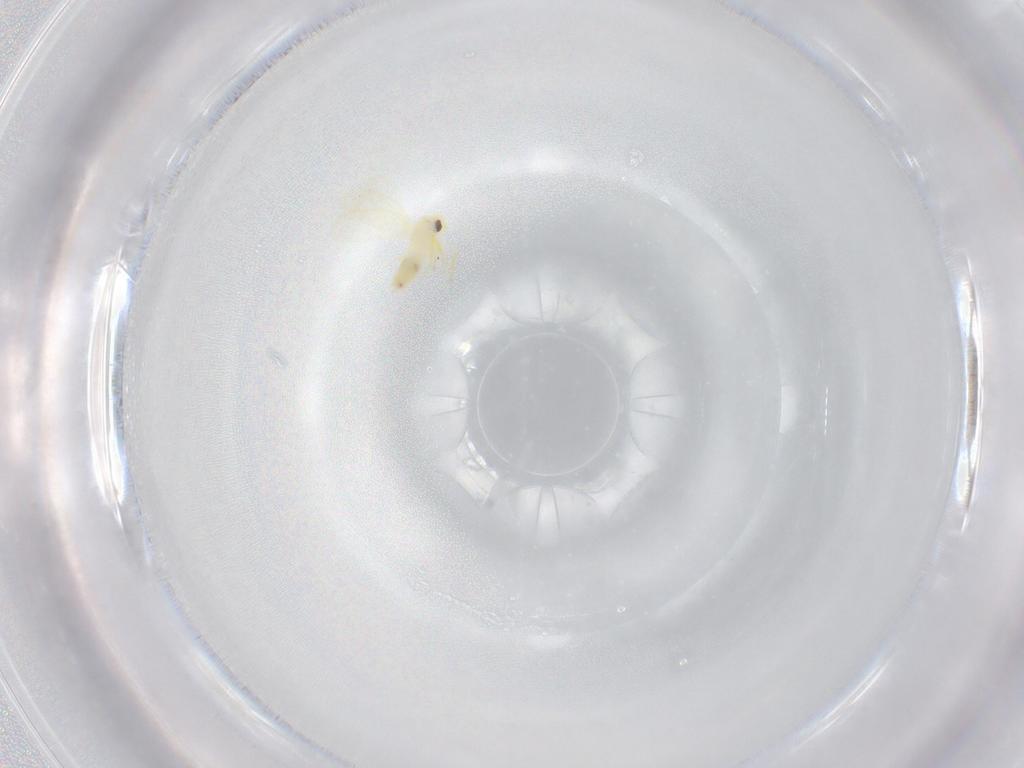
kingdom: Animalia
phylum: Arthropoda
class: Insecta
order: Hemiptera
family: Aleyrodidae
